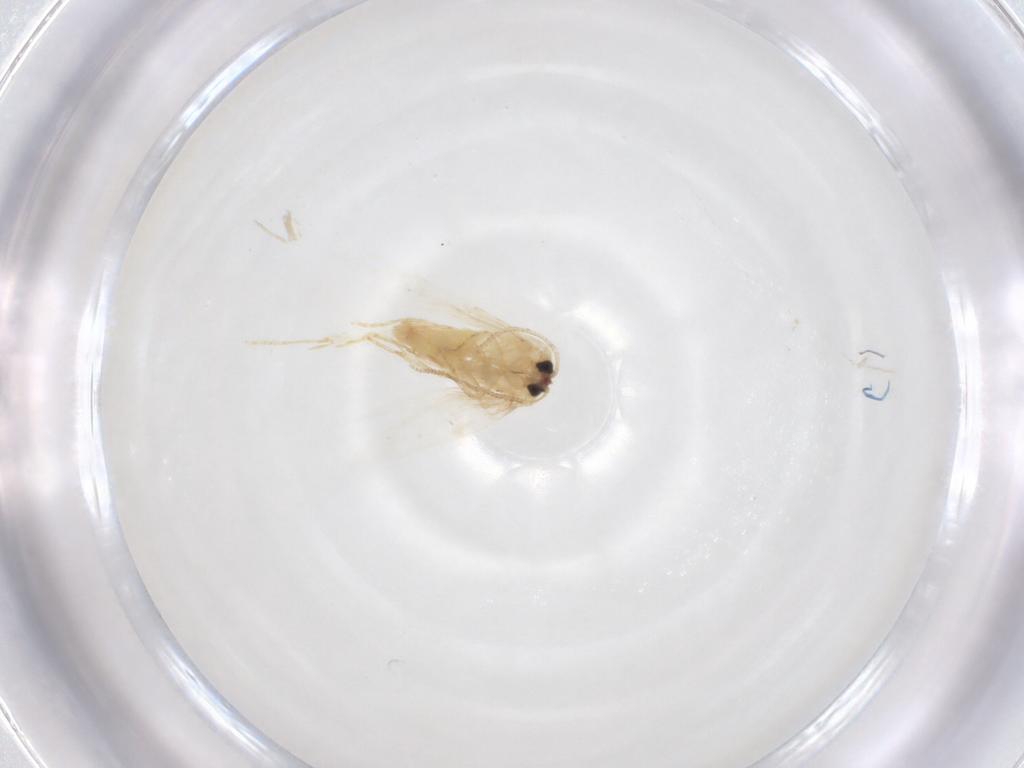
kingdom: Animalia
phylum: Arthropoda
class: Insecta
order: Lepidoptera
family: Nepticulidae
